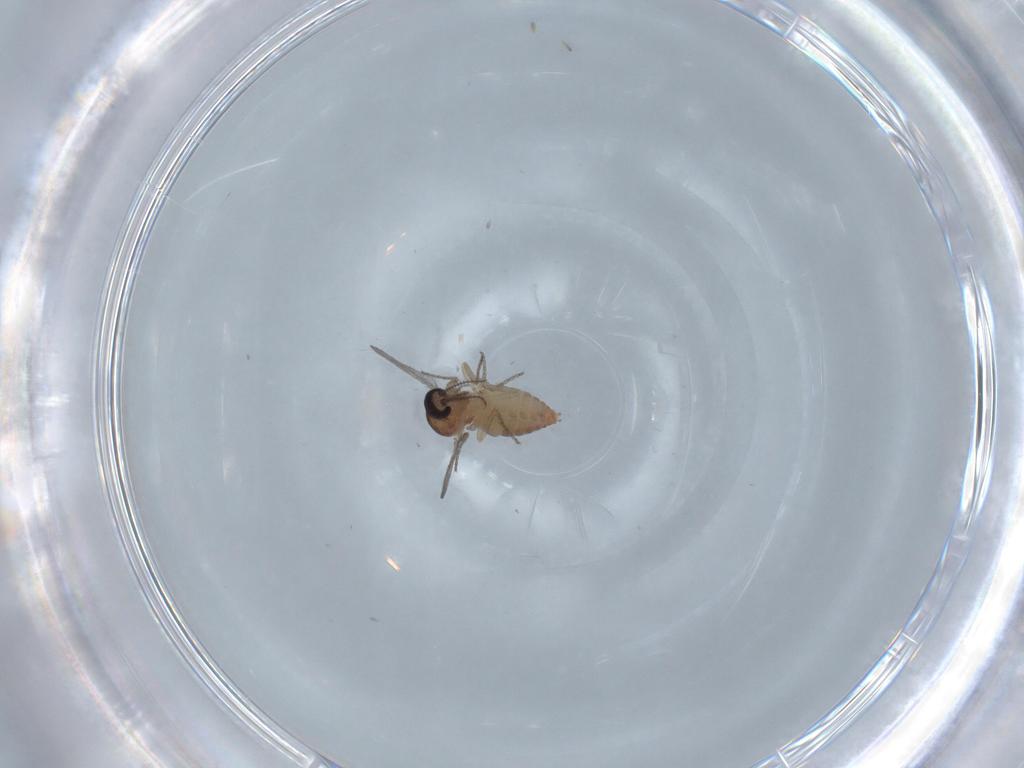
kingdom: Animalia
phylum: Arthropoda
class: Insecta
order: Diptera
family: Ceratopogonidae
